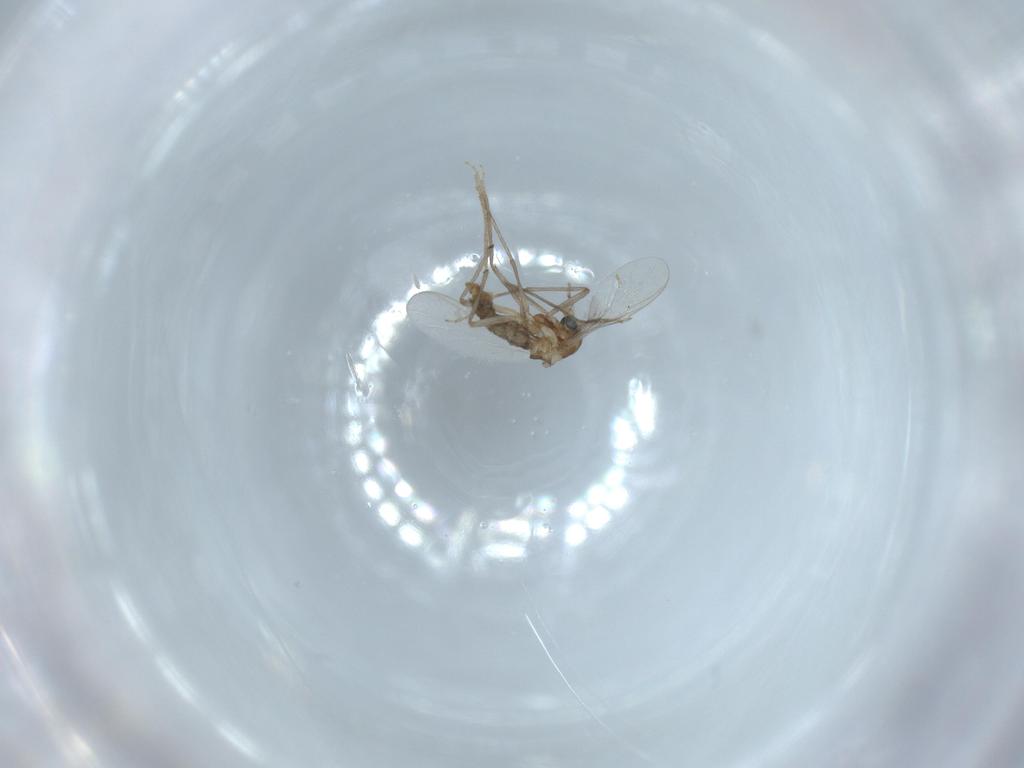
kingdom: Animalia
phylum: Arthropoda
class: Insecta
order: Diptera
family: Chironomidae
